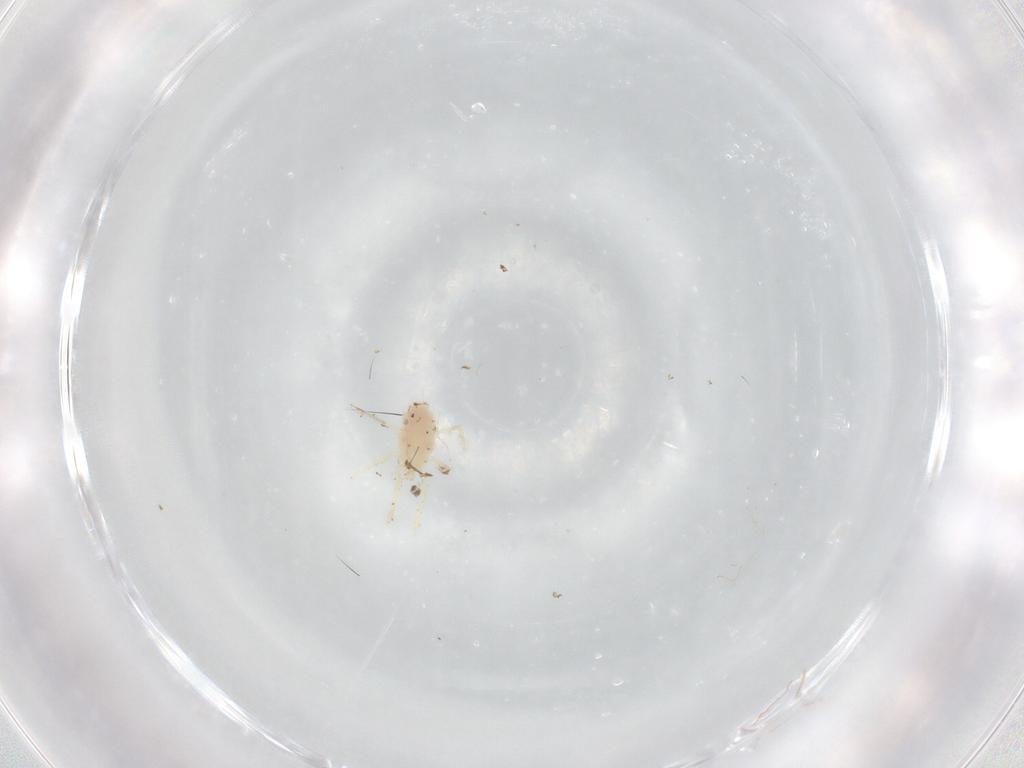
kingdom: Animalia
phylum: Arthropoda
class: Arachnida
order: Trombidiformes
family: Trombidiidae
